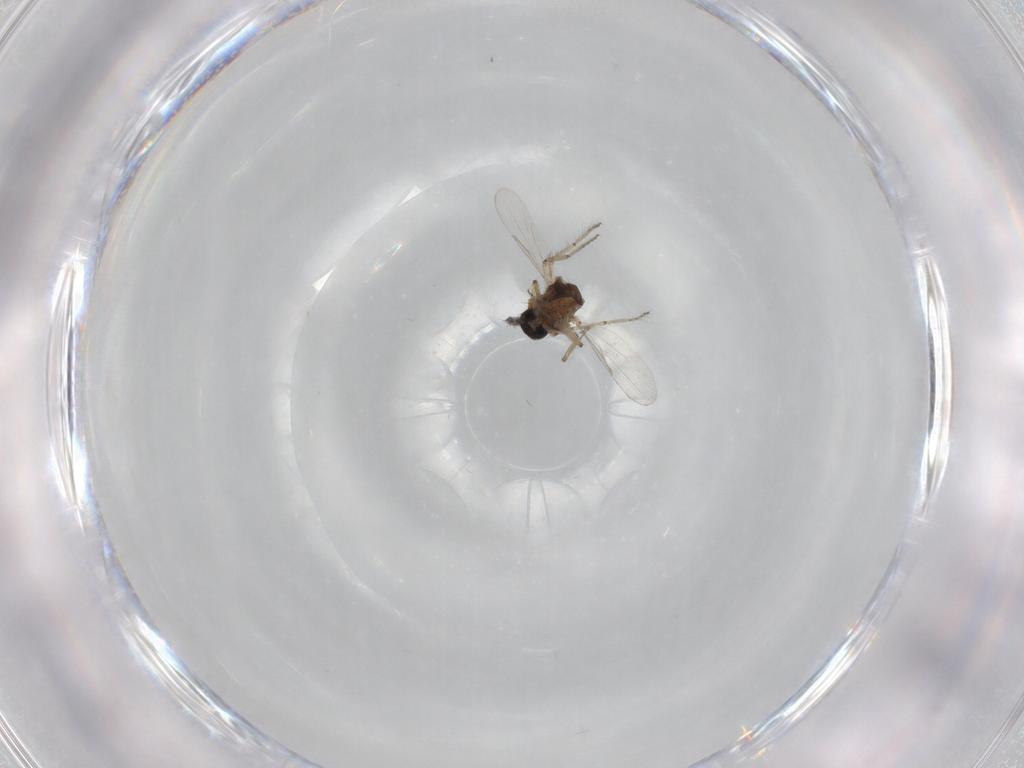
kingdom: Animalia
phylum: Arthropoda
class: Insecta
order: Diptera
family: Ceratopogonidae
